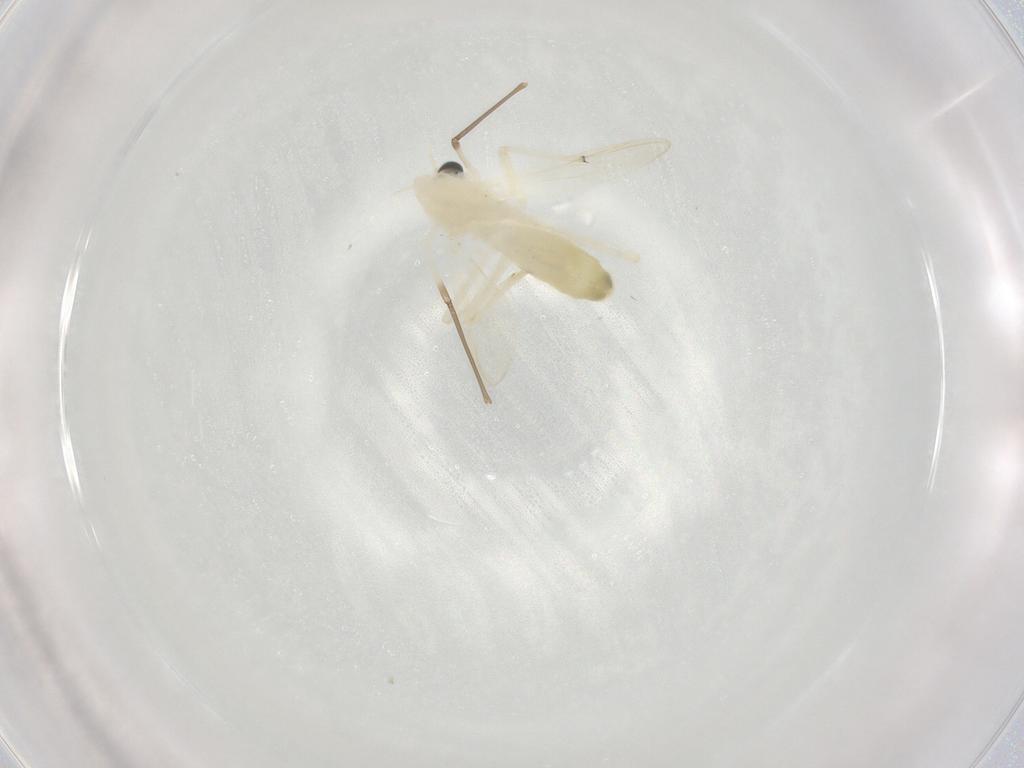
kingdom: Animalia
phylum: Arthropoda
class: Insecta
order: Diptera
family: Chironomidae
